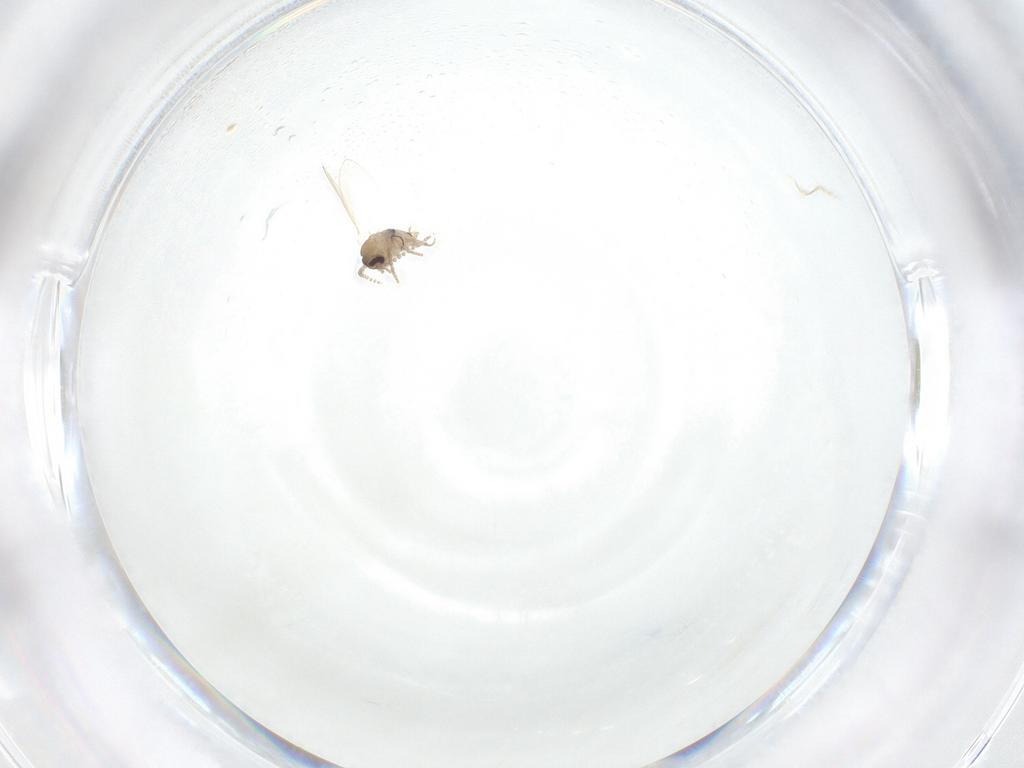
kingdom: Animalia
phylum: Arthropoda
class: Insecta
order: Diptera
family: Psychodidae
